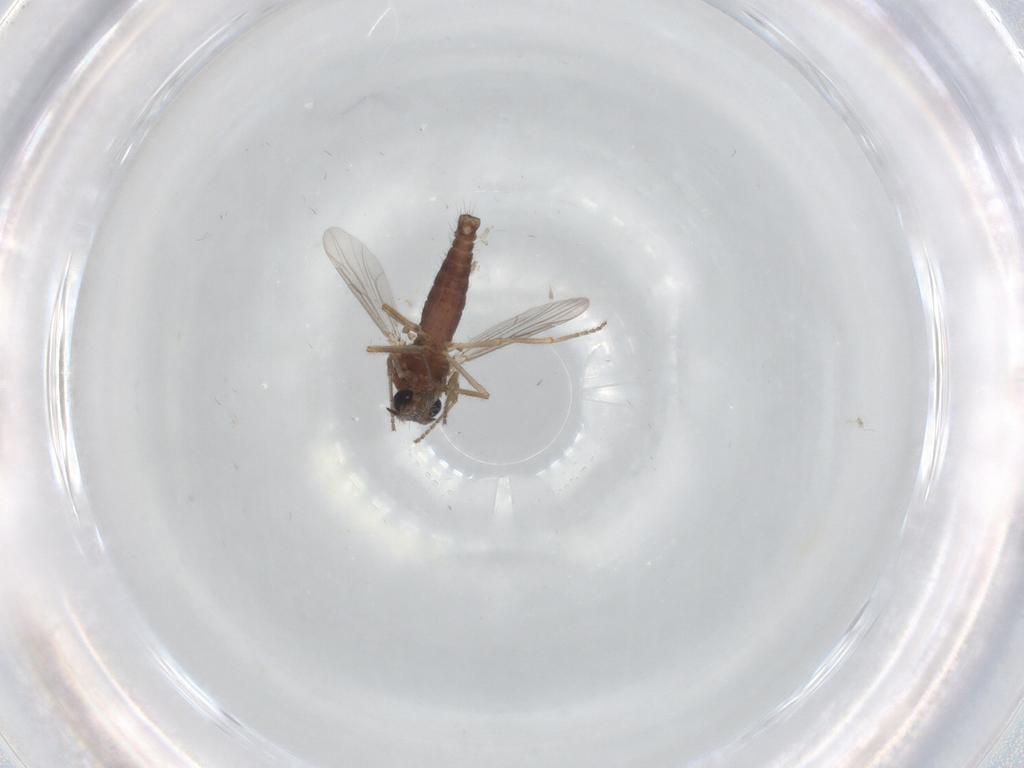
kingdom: Animalia
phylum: Arthropoda
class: Insecta
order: Diptera
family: Ceratopogonidae
